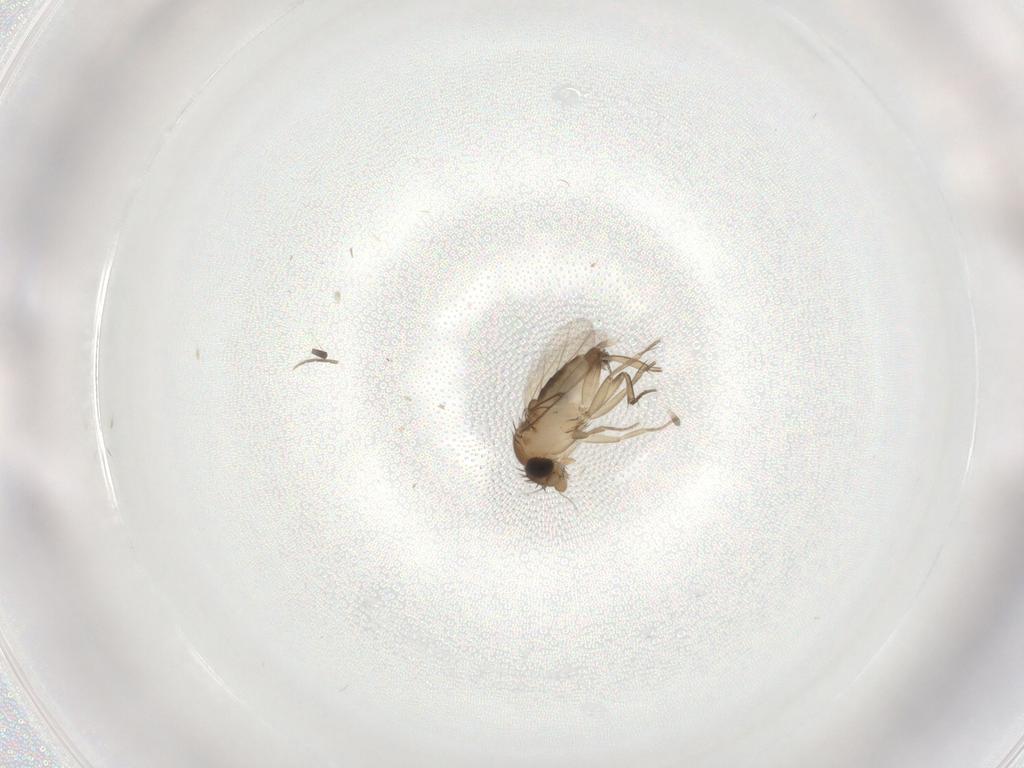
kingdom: Animalia
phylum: Arthropoda
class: Insecta
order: Diptera
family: Phoridae
